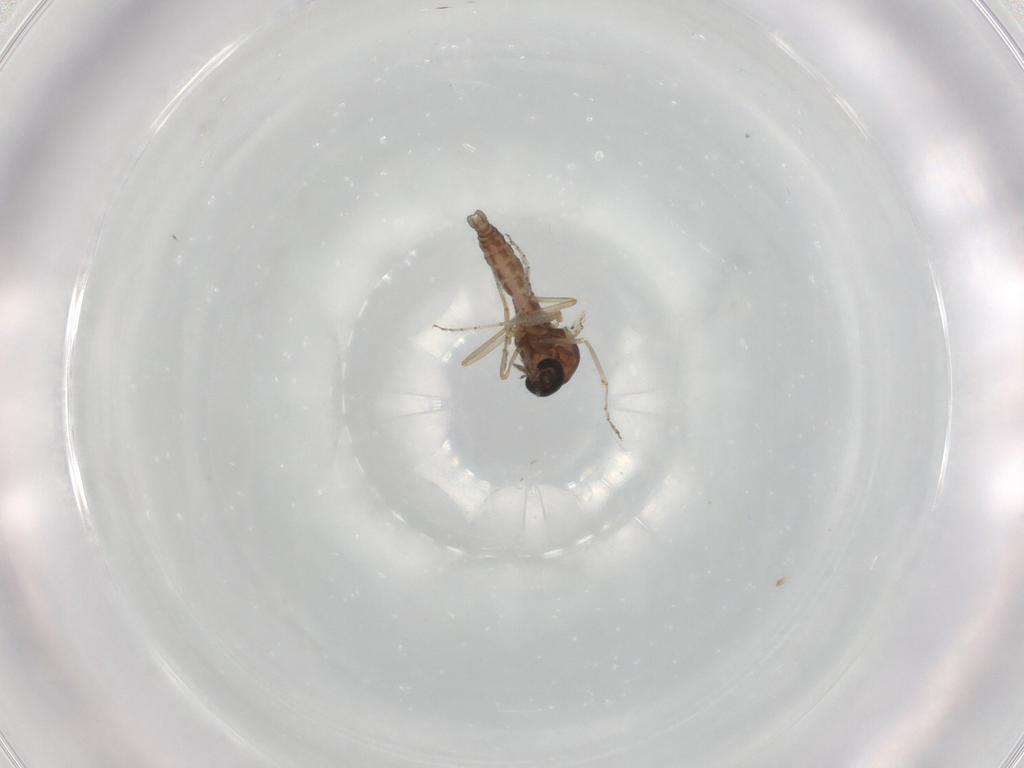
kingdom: Animalia
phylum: Arthropoda
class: Insecta
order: Diptera
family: Ceratopogonidae
